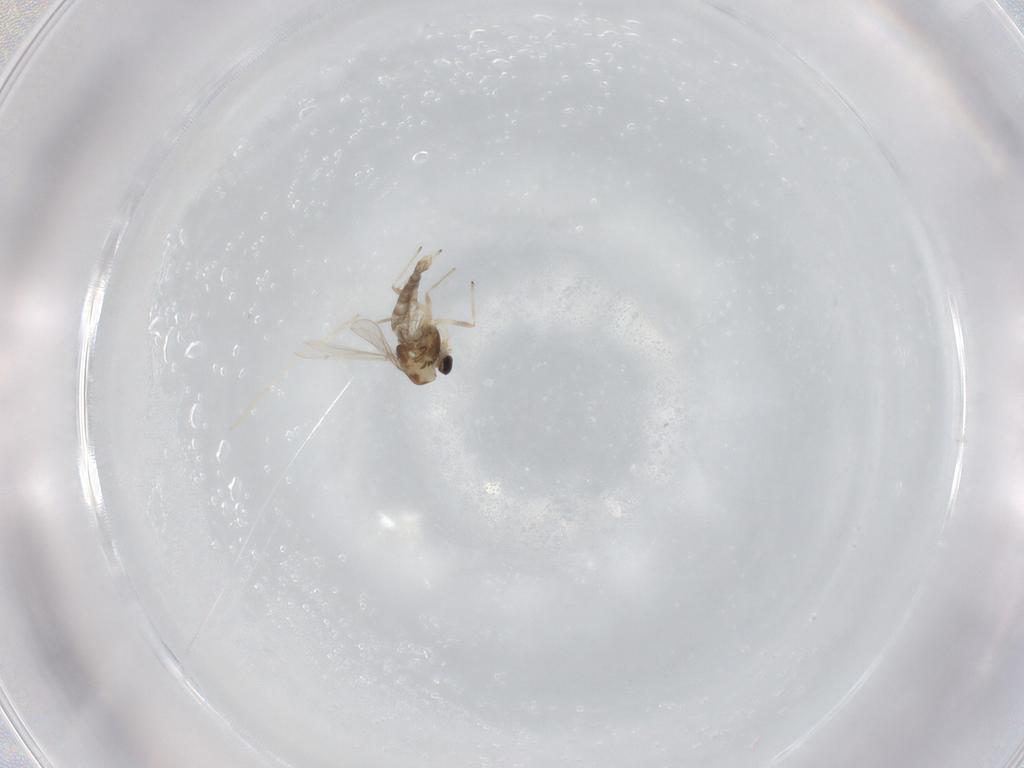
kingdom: Animalia
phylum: Arthropoda
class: Insecta
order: Diptera
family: Chironomidae
